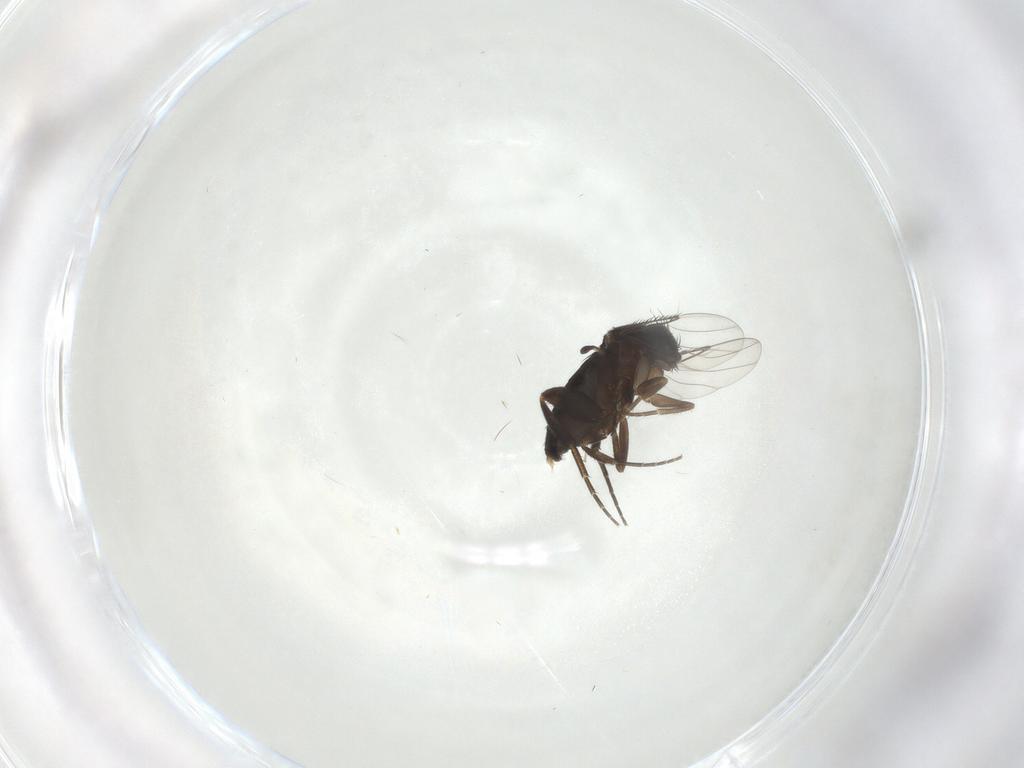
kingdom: Animalia
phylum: Arthropoda
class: Insecta
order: Diptera
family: Phoridae
